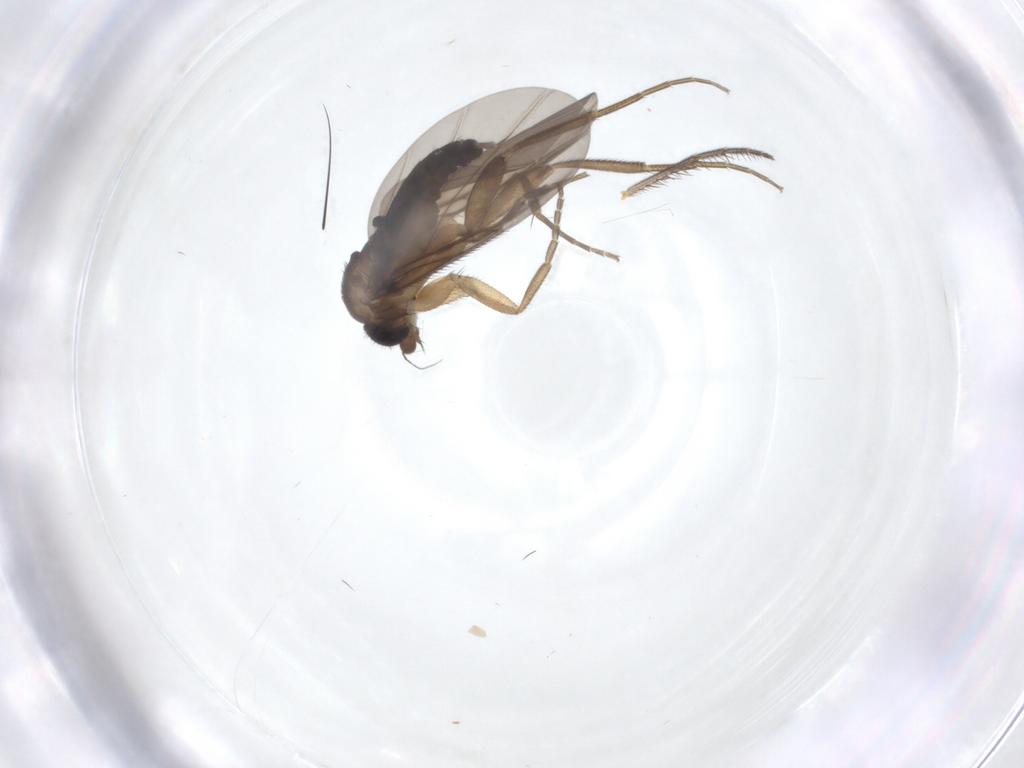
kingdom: Animalia
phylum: Arthropoda
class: Insecta
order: Diptera
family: Phoridae
